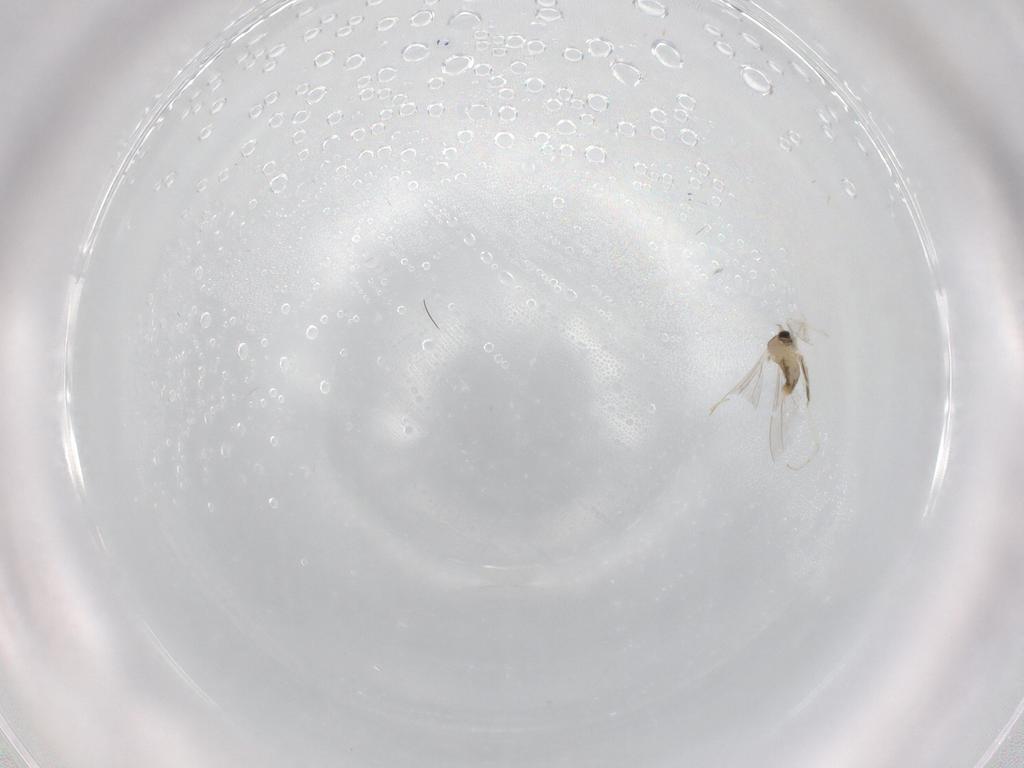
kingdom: Animalia
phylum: Arthropoda
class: Insecta
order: Diptera
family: Cecidomyiidae
